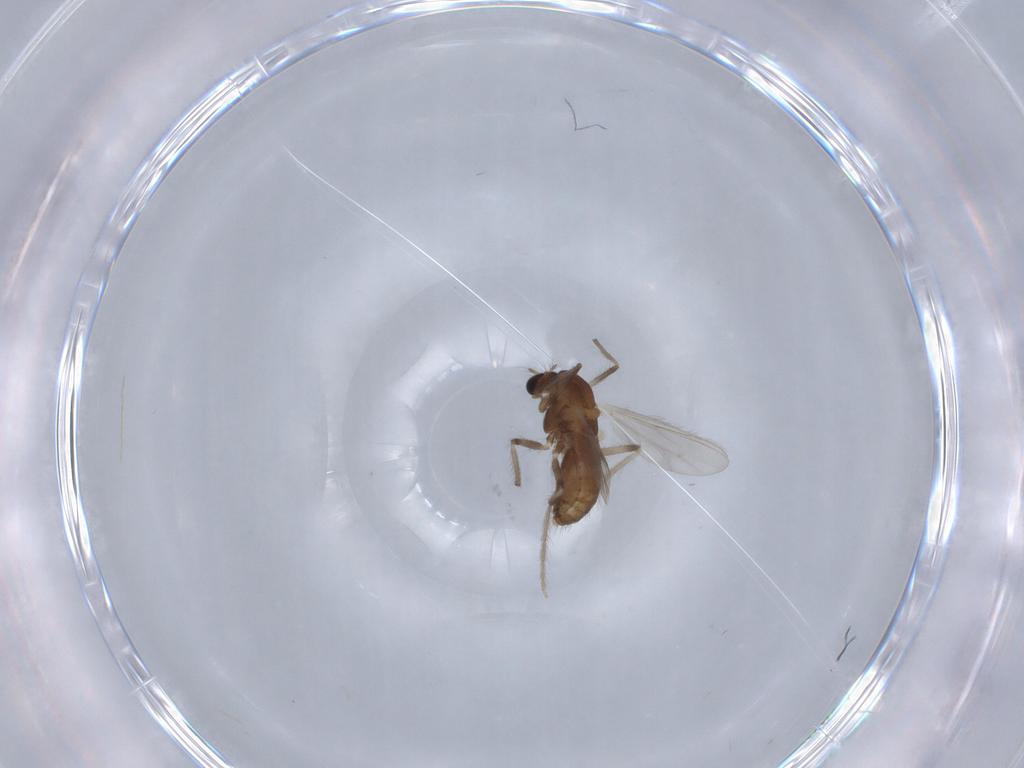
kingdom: Animalia
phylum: Arthropoda
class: Insecta
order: Diptera
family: Chironomidae
